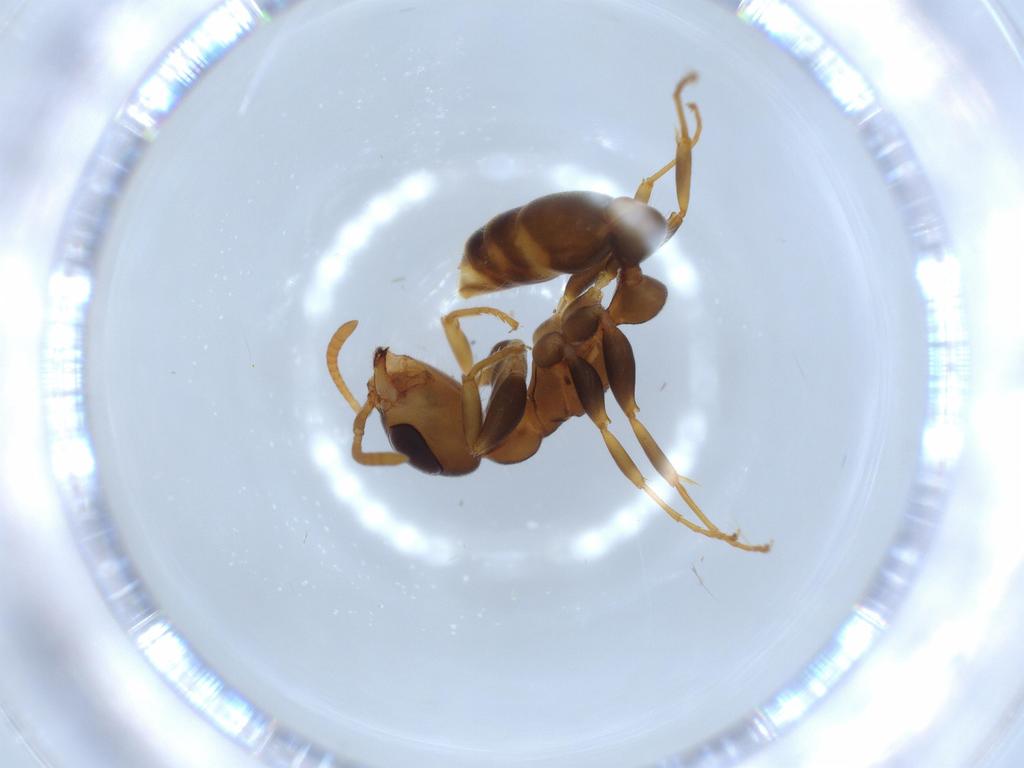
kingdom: Animalia
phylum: Arthropoda
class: Insecta
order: Hymenoptera
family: Formicidae
